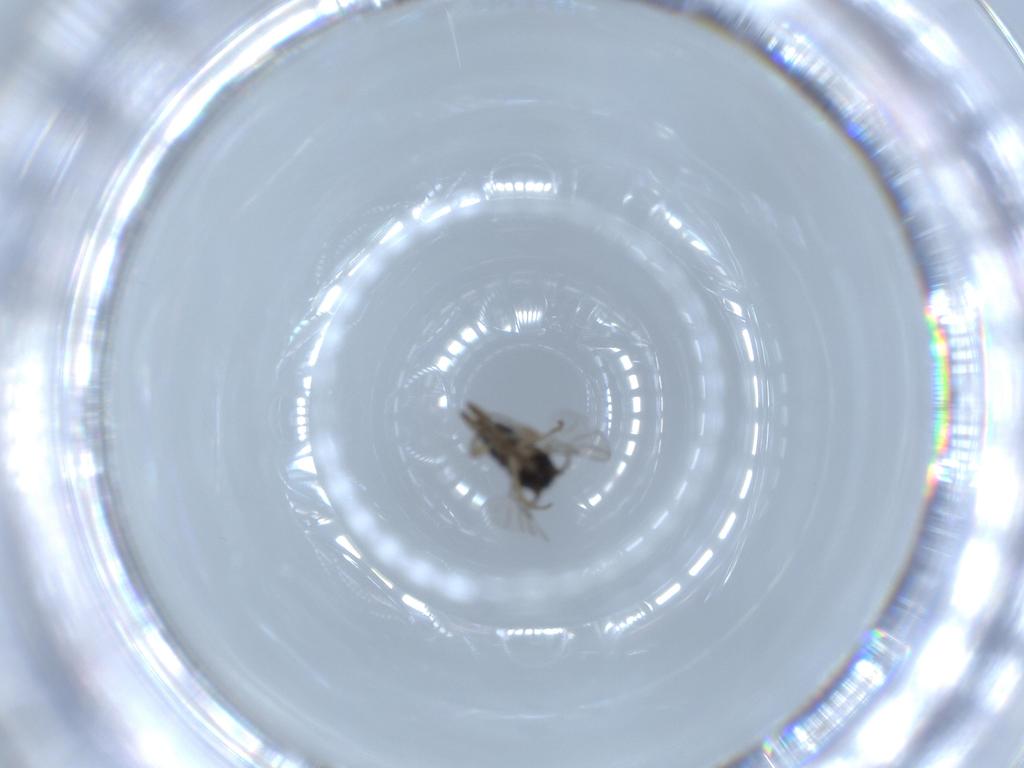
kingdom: Animalia
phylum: Arthropoda
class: Insecta
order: Diptera
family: Phoridae
